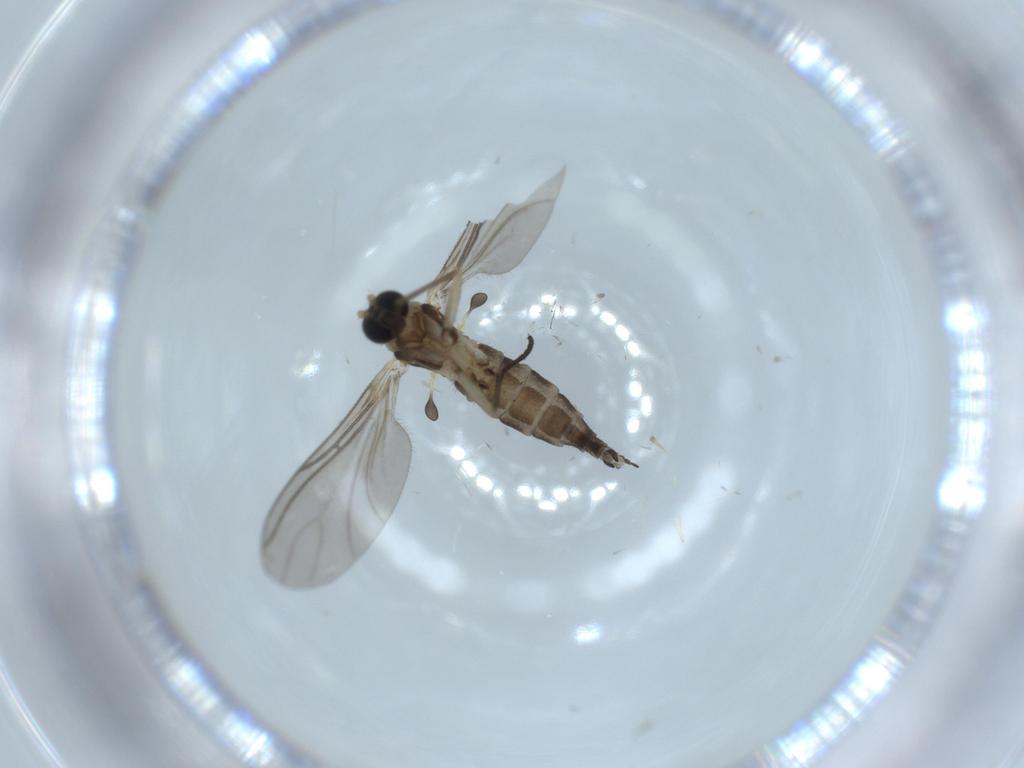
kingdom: Animalia
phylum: Arthropoda
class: Insecta
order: Diptera
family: Sciaridae
